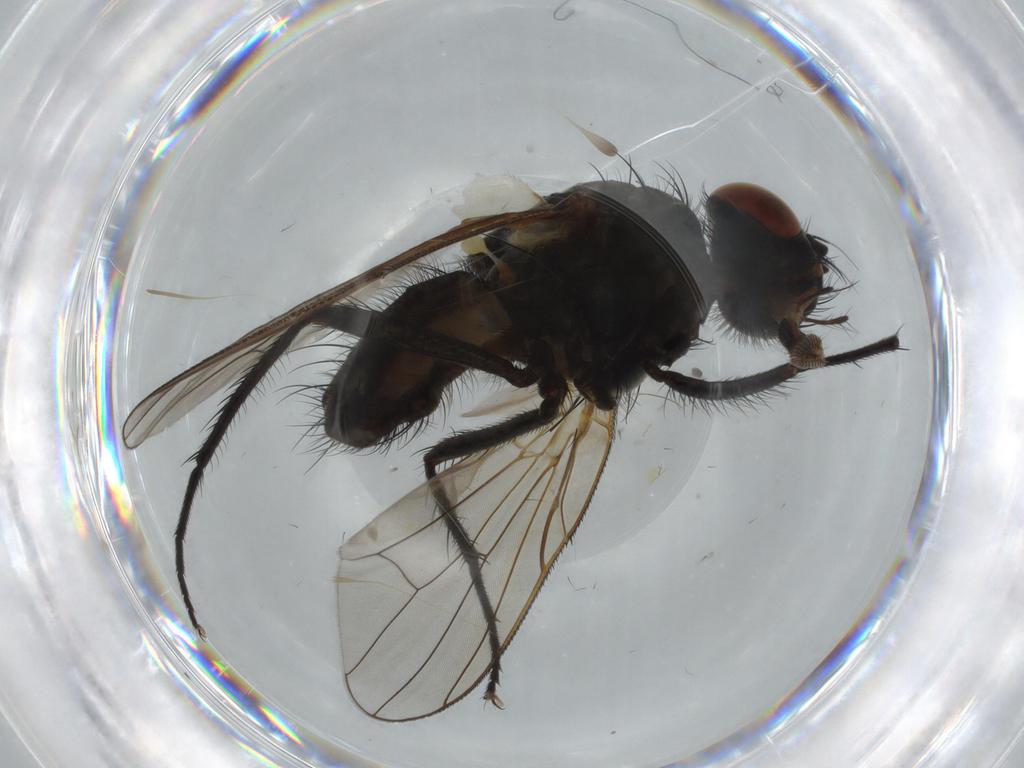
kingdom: Animalia
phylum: Arthropoda
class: Insecta
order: Diptera
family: Anthomyiidae
